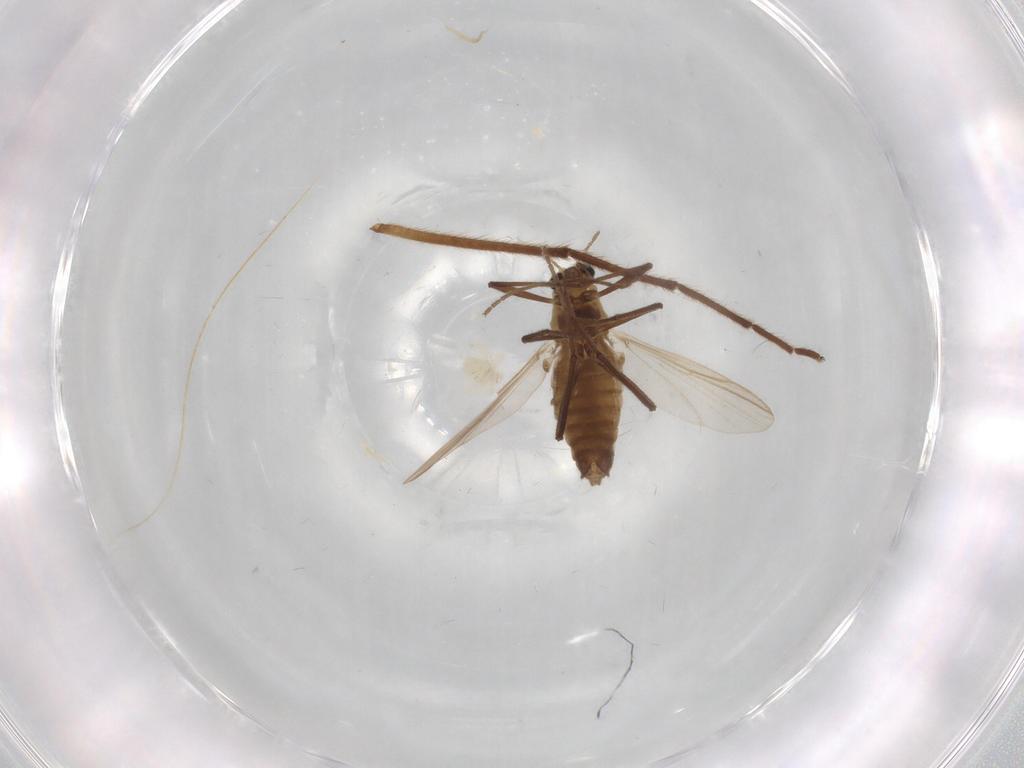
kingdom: Animalia
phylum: Arthropoda
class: Insecta
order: Diptera
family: Chironomidae
